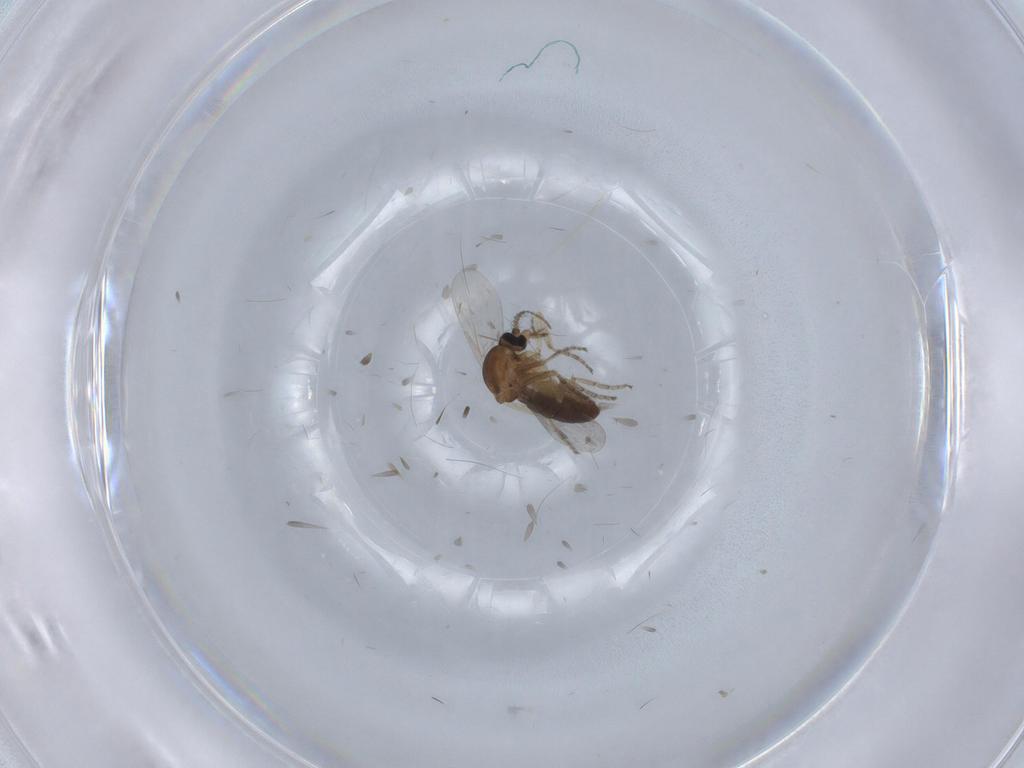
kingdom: Animalia
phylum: Arthropoda
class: Insecta
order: Diptera
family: Ceratopogonidae
